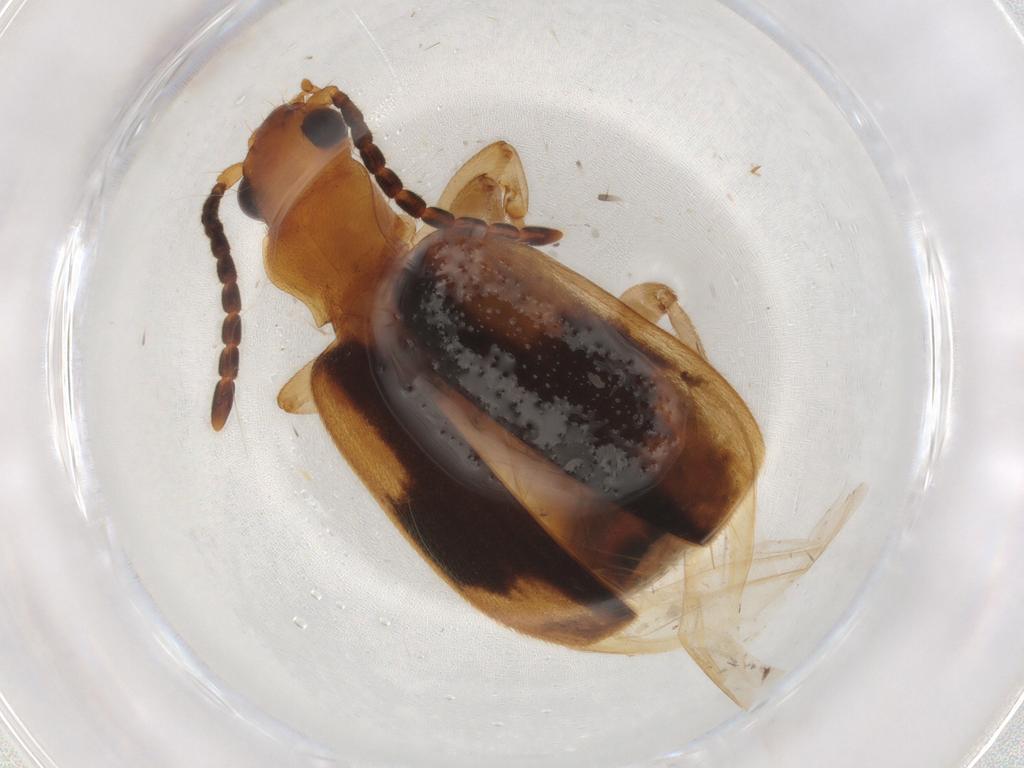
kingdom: Animalia
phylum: Arthropoda
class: Insecta
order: Coleoptera
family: Carabidae
